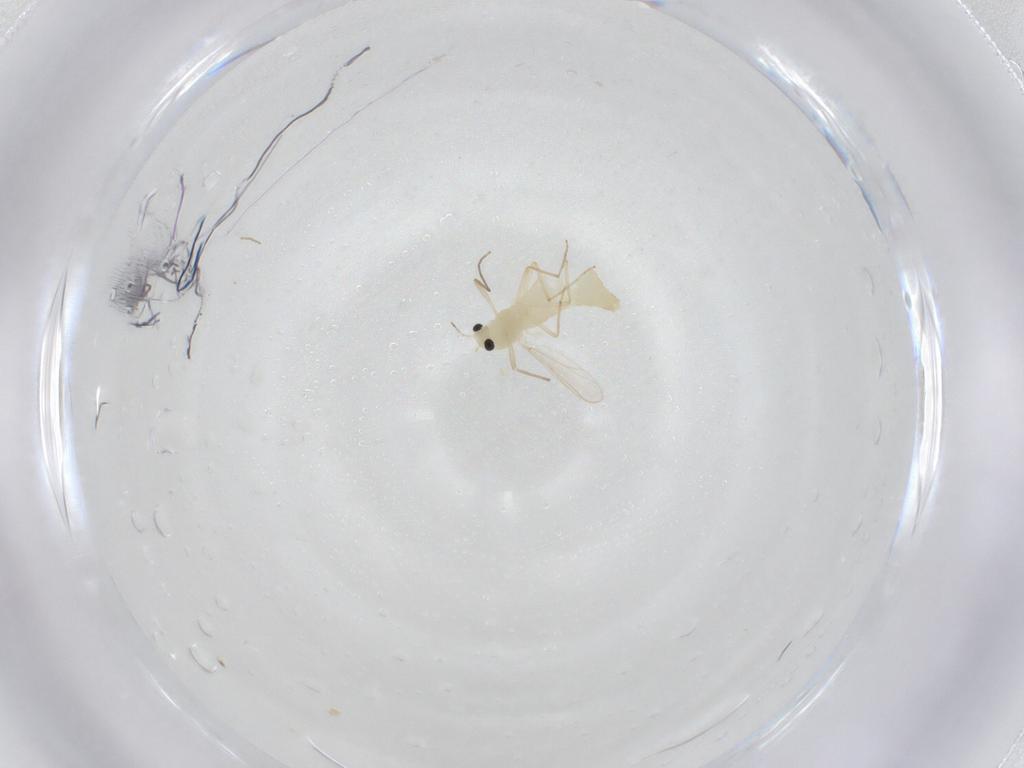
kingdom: Animalia
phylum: Arthropoda
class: Insecta
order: Diptera
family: Chironomidae
